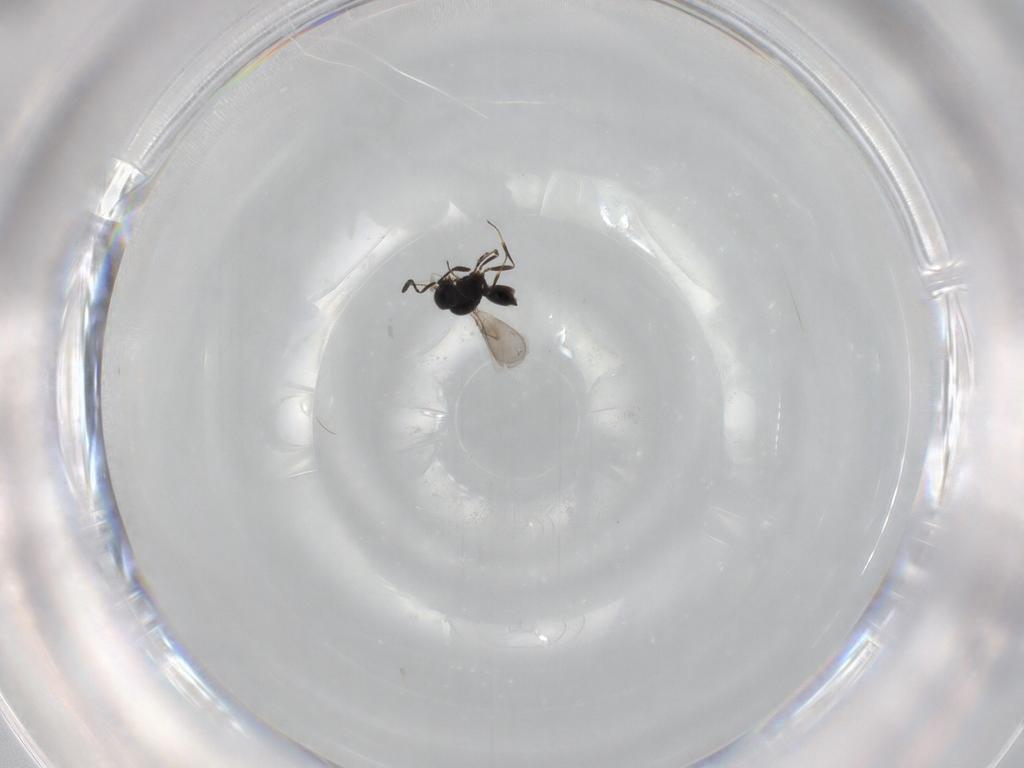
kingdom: Animalia
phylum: Arthropoda
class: Insecta
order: Hymenoptera
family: Scelionidae
